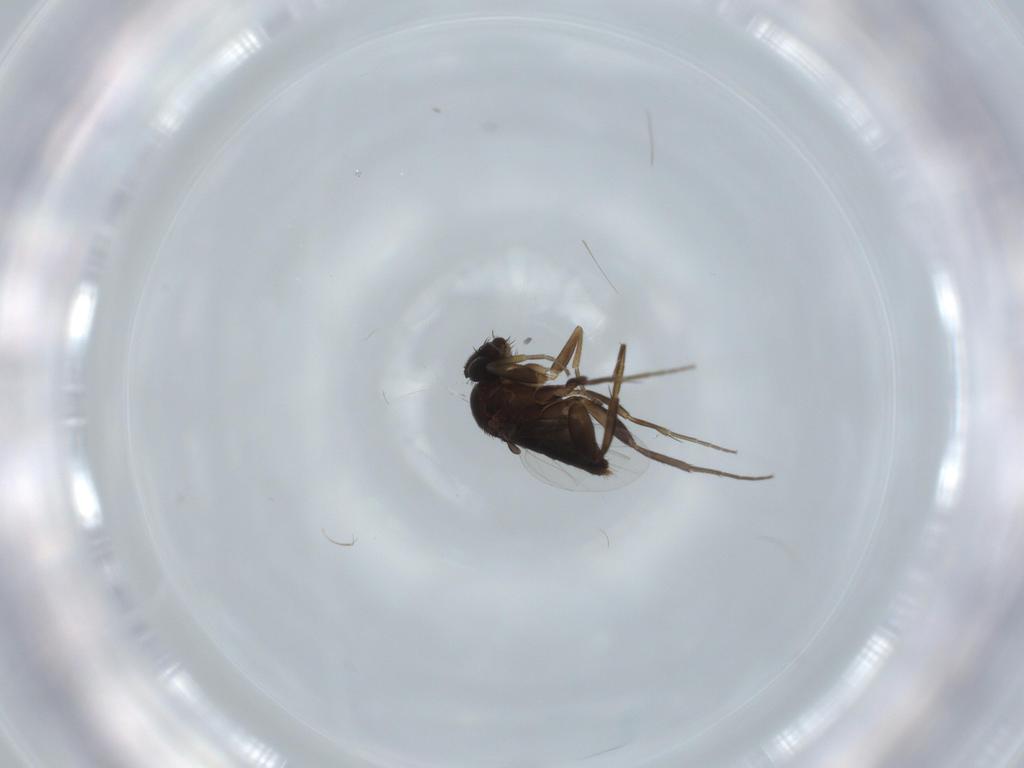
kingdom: Animalia
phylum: Arthropoda
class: Insecta
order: Diptera
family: Phoridae
